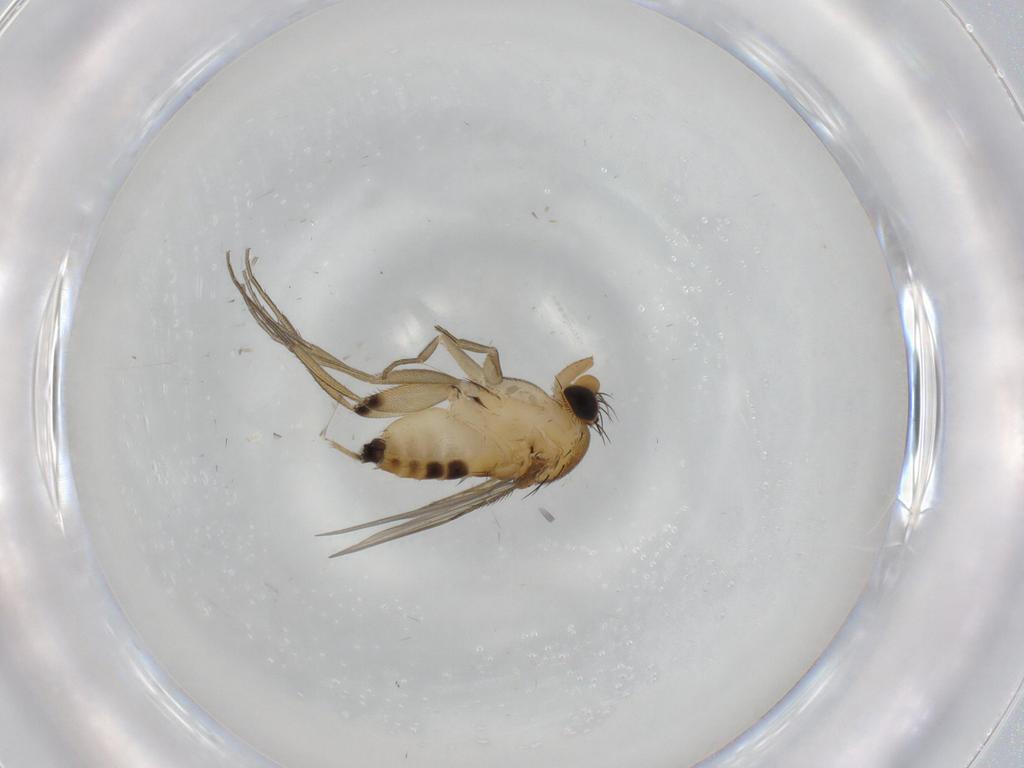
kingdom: Animalia
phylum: Arthropoda
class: Insecta
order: Diptera
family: Phoridae
